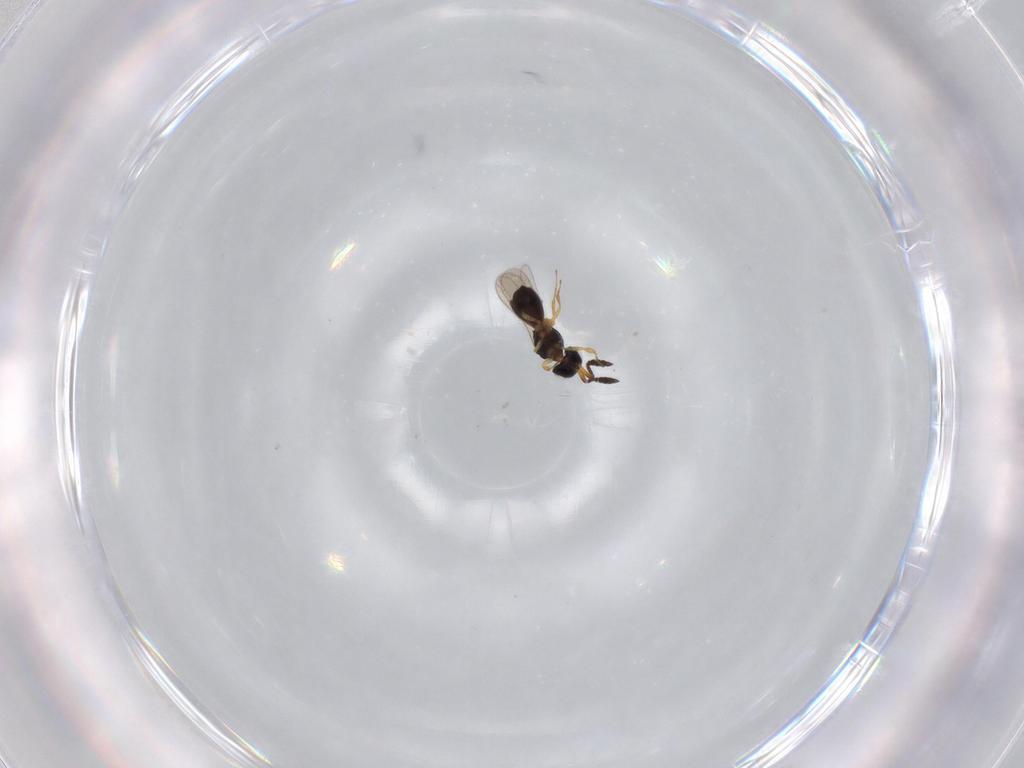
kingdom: Animalia
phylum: Arthropoda
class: Insecta
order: Hymenoptera
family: Scelionidae
